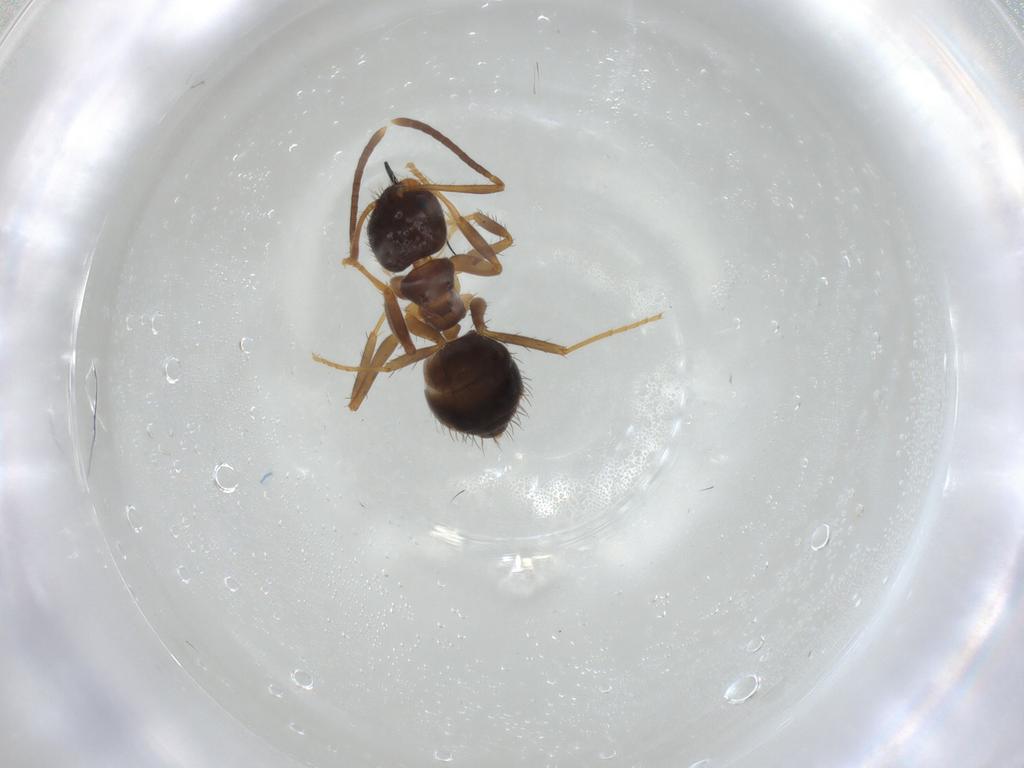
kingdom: Animalia
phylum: Arthropoda
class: Insecta
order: Hymenoptera
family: Formicidae
